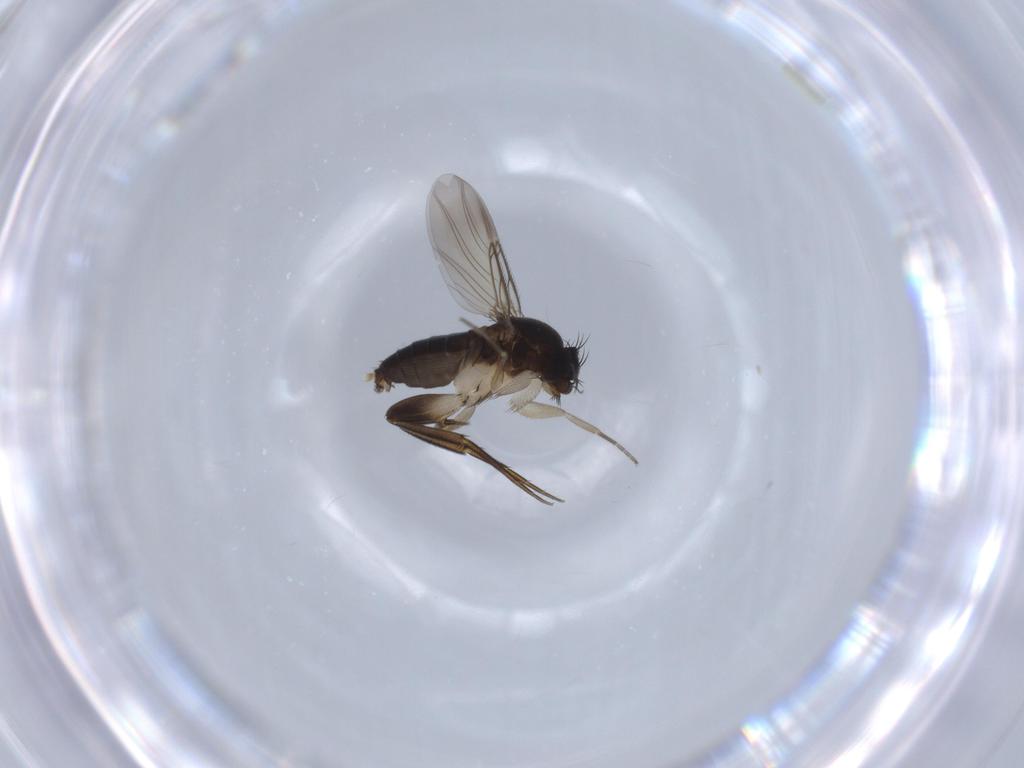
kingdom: Animalia
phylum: Arthropoda
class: Insecta
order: Diptera
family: Phoridae
